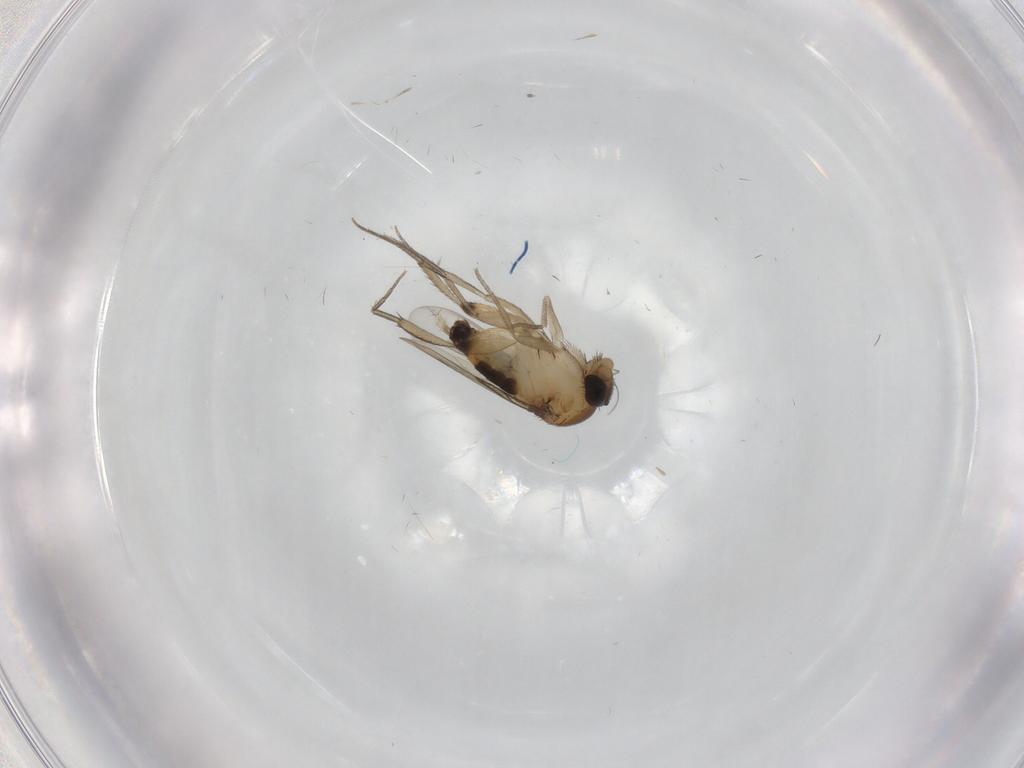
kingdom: Animalia
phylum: Arthropoda
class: Insecta
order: Diptera
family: Phoridae
